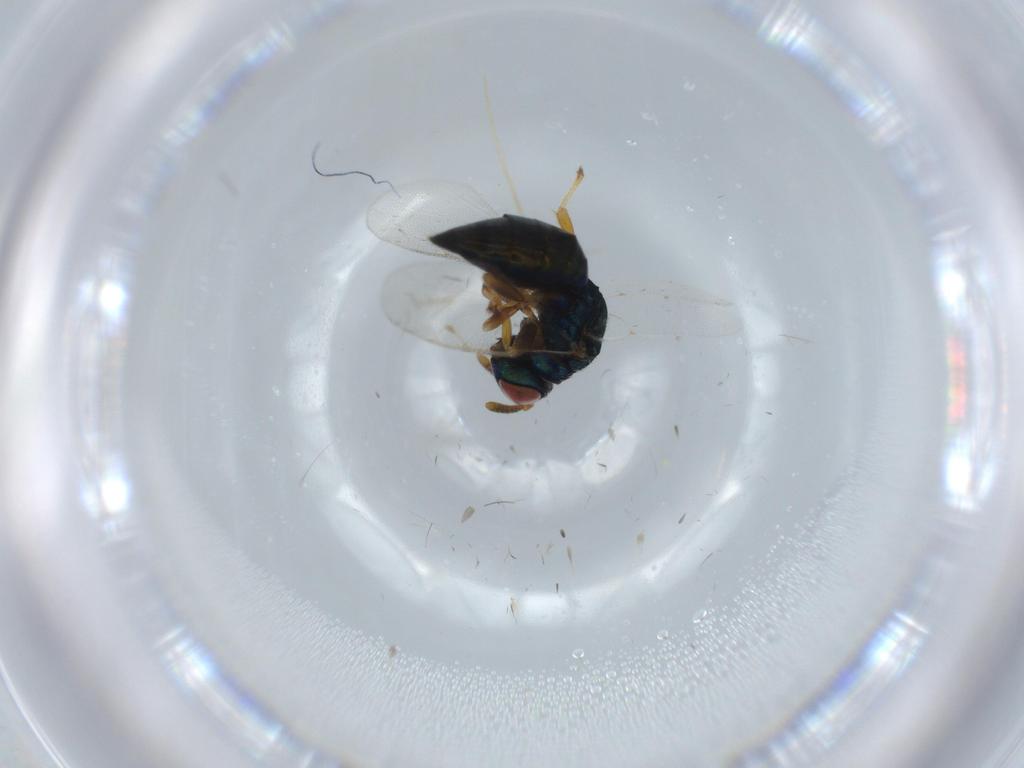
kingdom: Animalia
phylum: Arthropoda
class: Insecta
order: Hymenoptera
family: Pteromalidae
